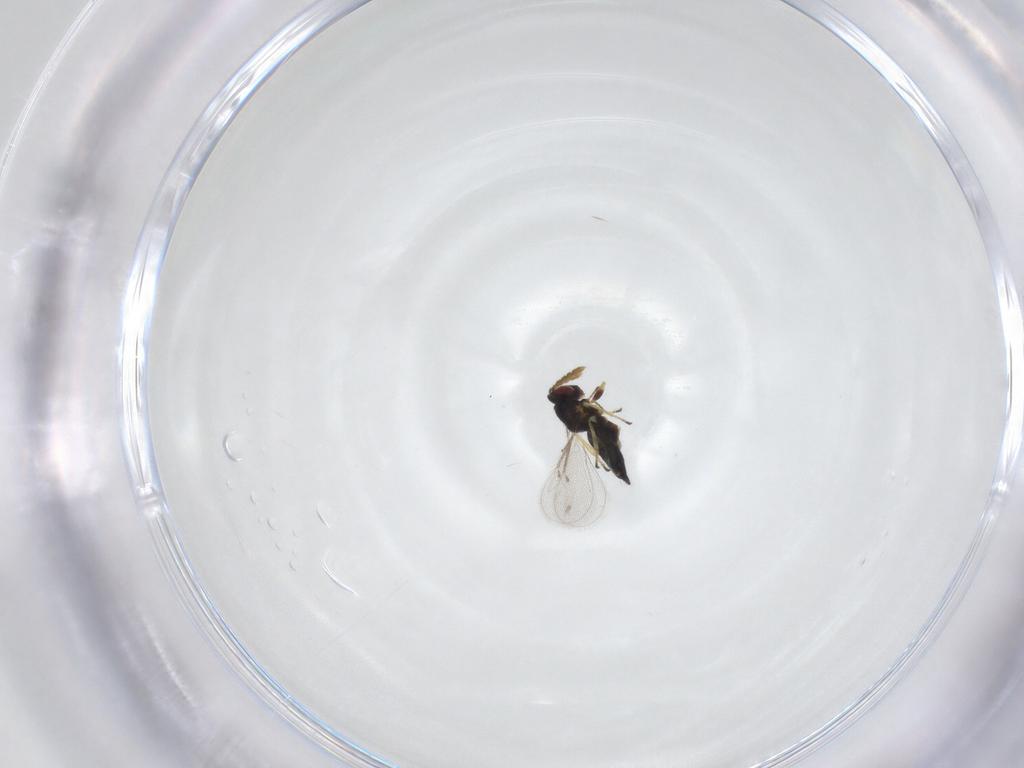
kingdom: Animalia
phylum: Arthropoda
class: Insecta
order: Hymenoptera
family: Eulophidae
